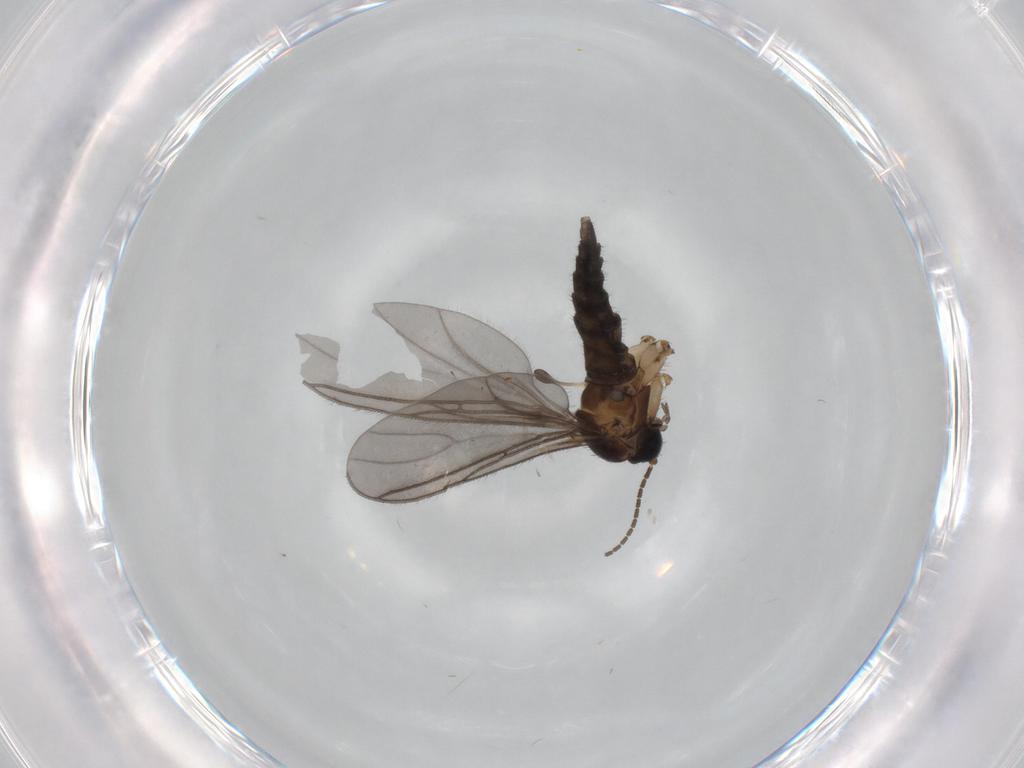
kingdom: Animalia
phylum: Arthropoda
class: Insecta
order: Diptera
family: Sciaridae
